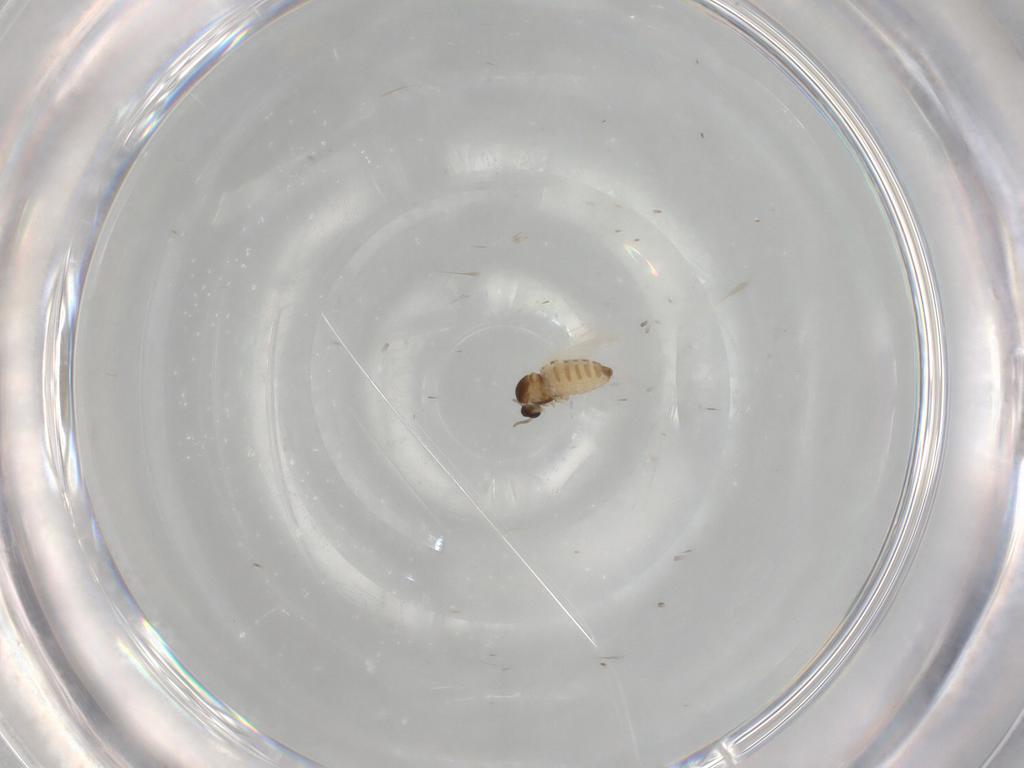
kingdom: Animalia
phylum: Arthropoda
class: Insecta
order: Diptera
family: Cecidomyiidae
